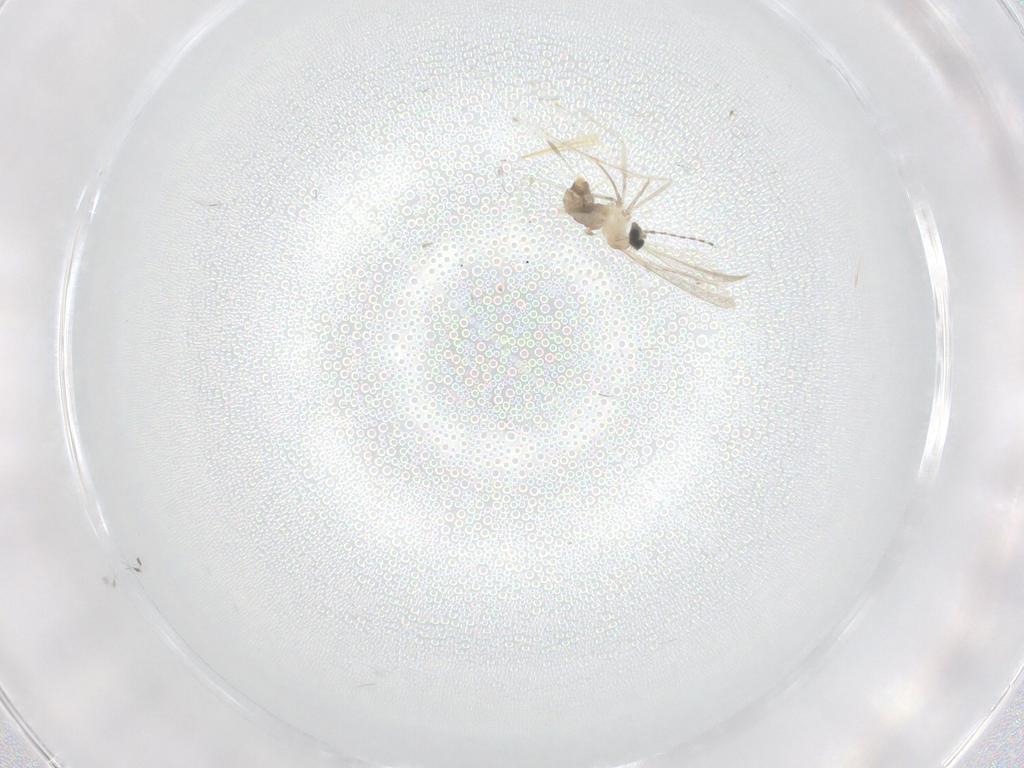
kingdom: Animalia
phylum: Arthropoda
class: Insecta
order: Diptera
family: Cecidomyiidae
